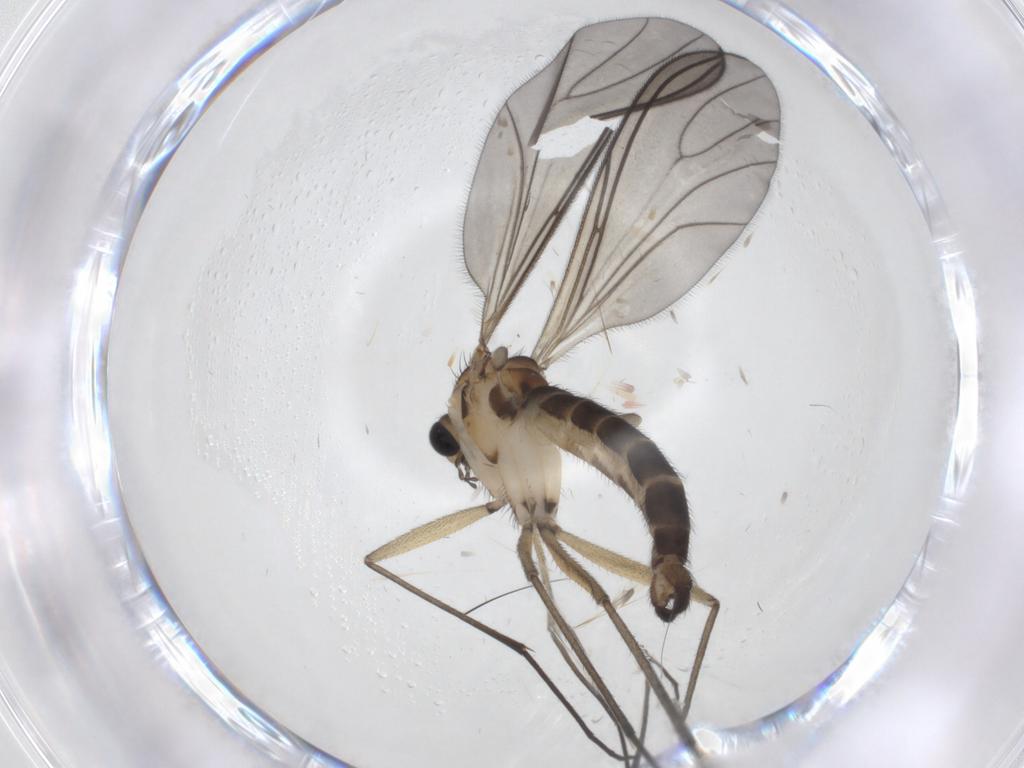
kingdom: Animalia
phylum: Arthropoda
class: Insecta
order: Diptera
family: Sciaridae
